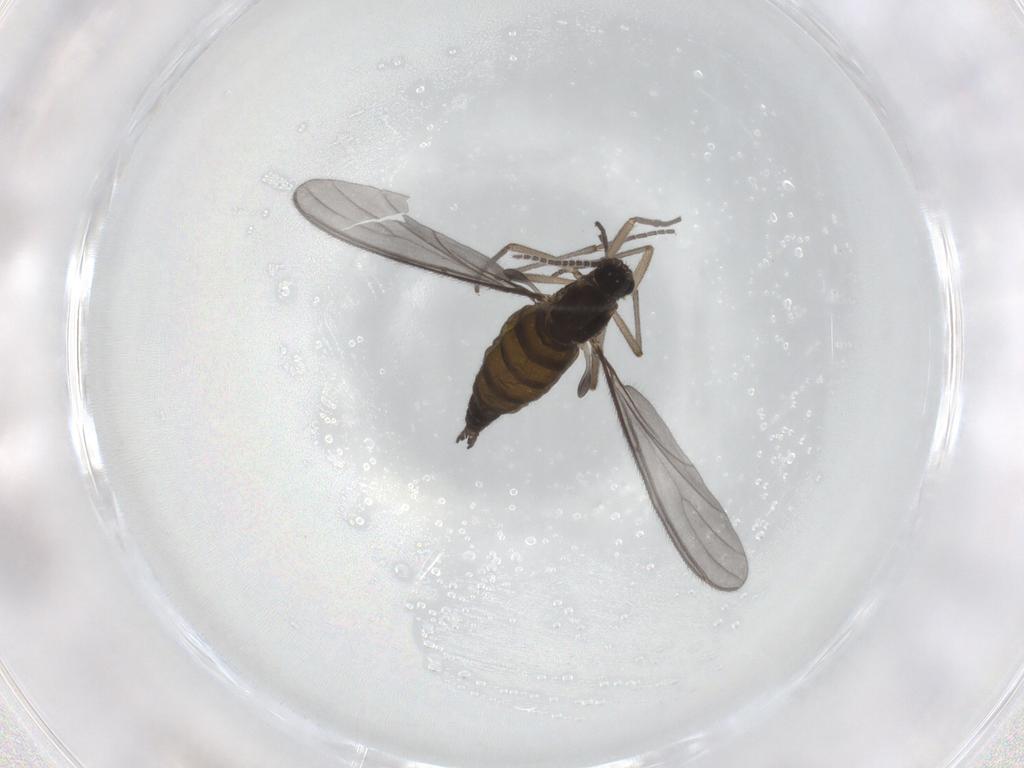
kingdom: Animalia
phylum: Arthropoda
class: Insecta
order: Diptera
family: Sciaridae
